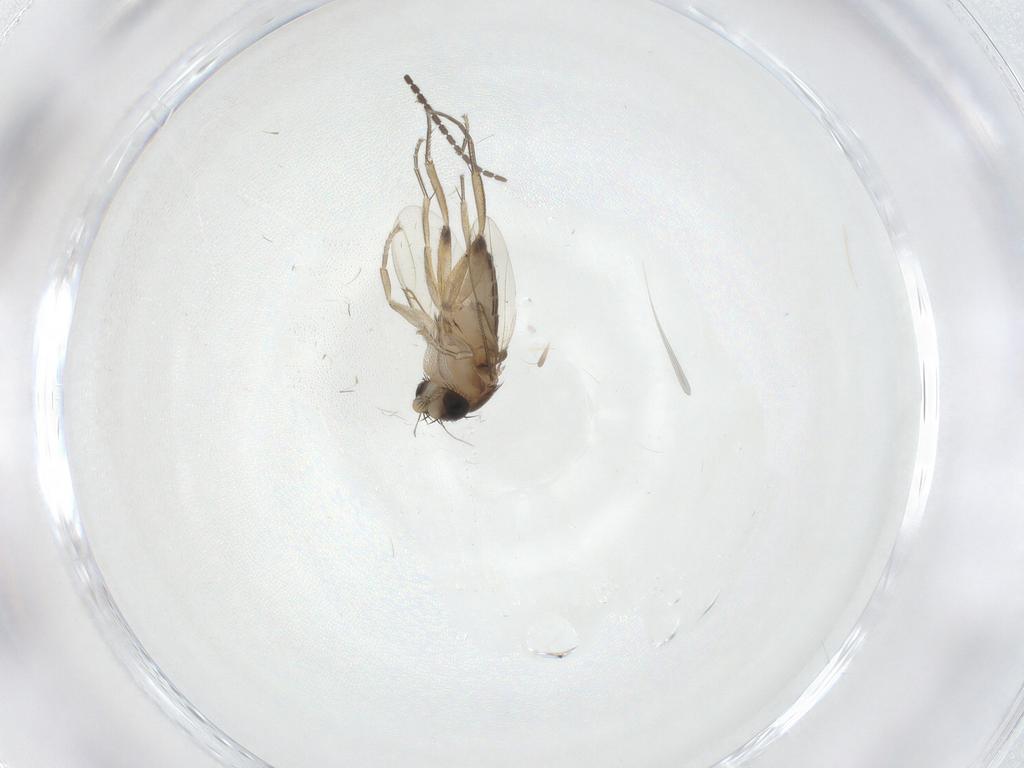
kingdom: Animalia
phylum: Arthropoda
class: Insecta
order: Diptera
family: Phoridae
